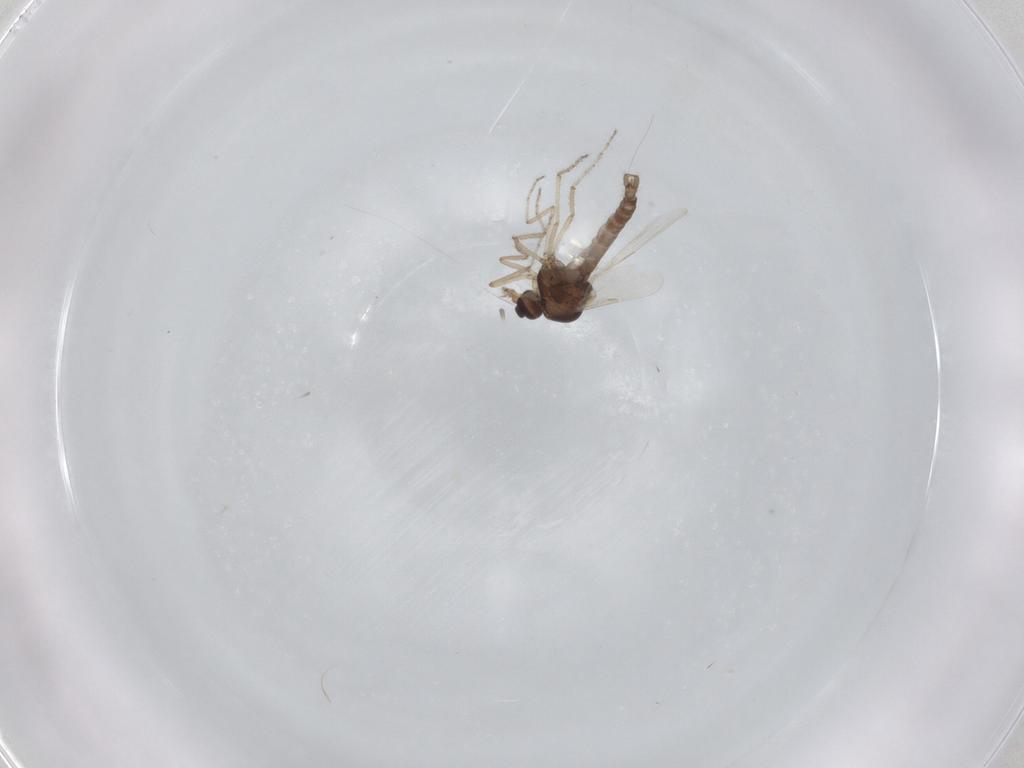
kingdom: Animalia
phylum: Arthropoda
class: Insecta
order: Diptera
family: Ceratopogonidae
